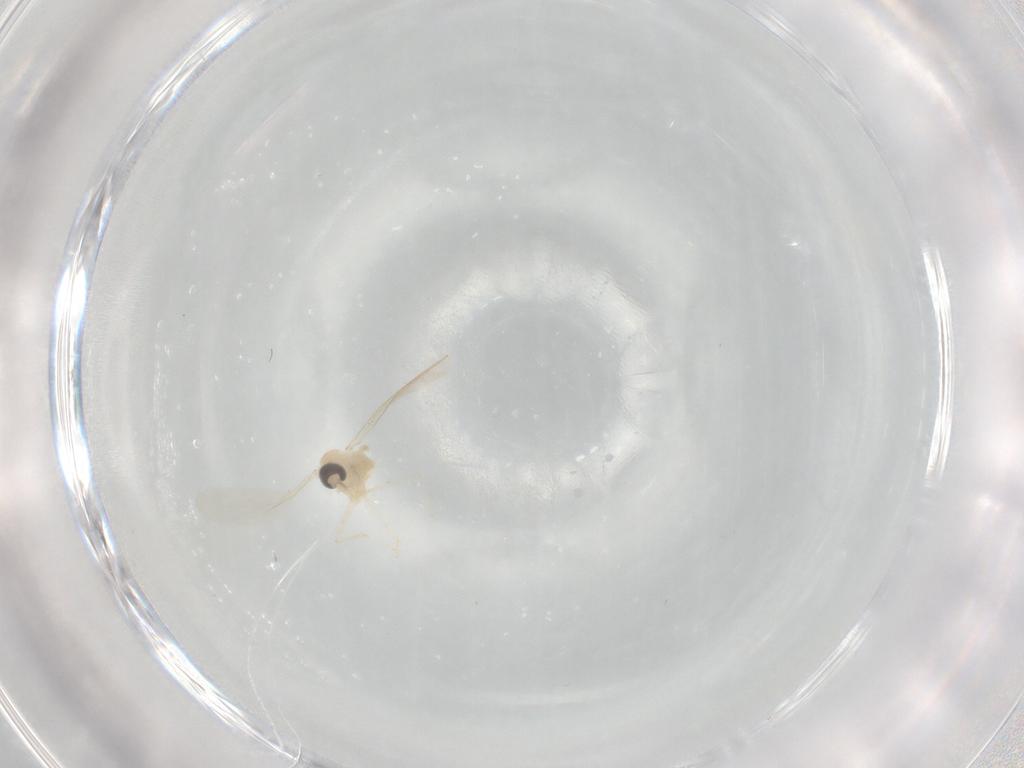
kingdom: Animalia
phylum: Arthropoda
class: Insecta
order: Diptera
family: Cecidomyiidae
